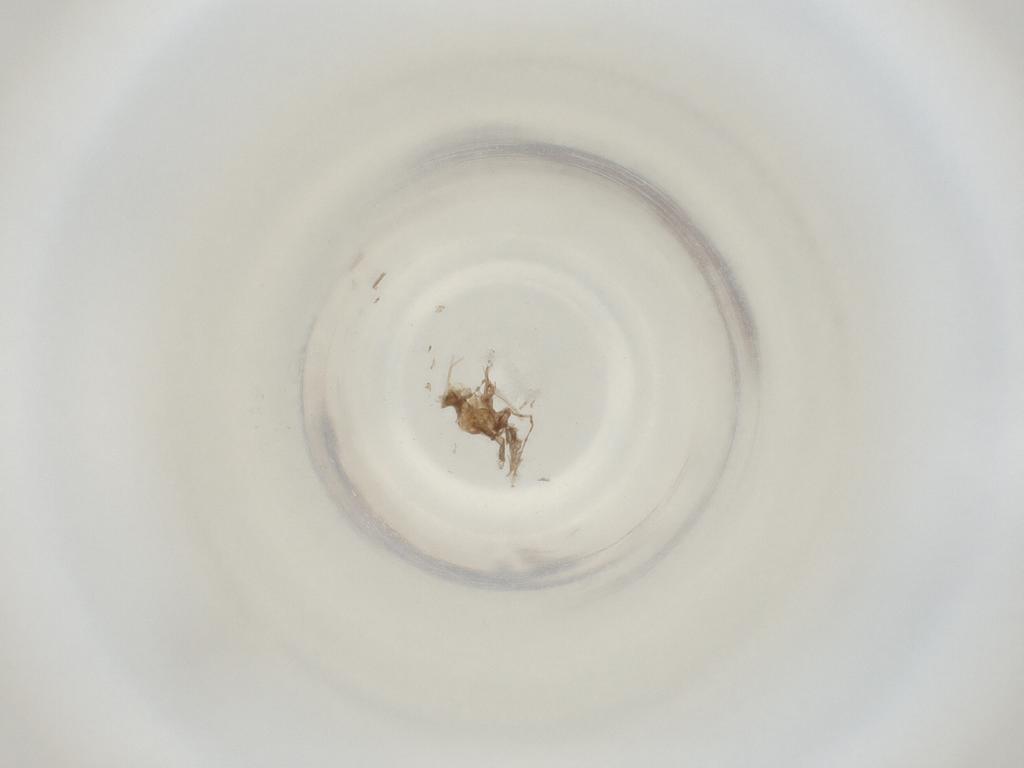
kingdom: Animalia
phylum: Arthropoda
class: Insecta
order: Diptera
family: Cecidomyiidae
